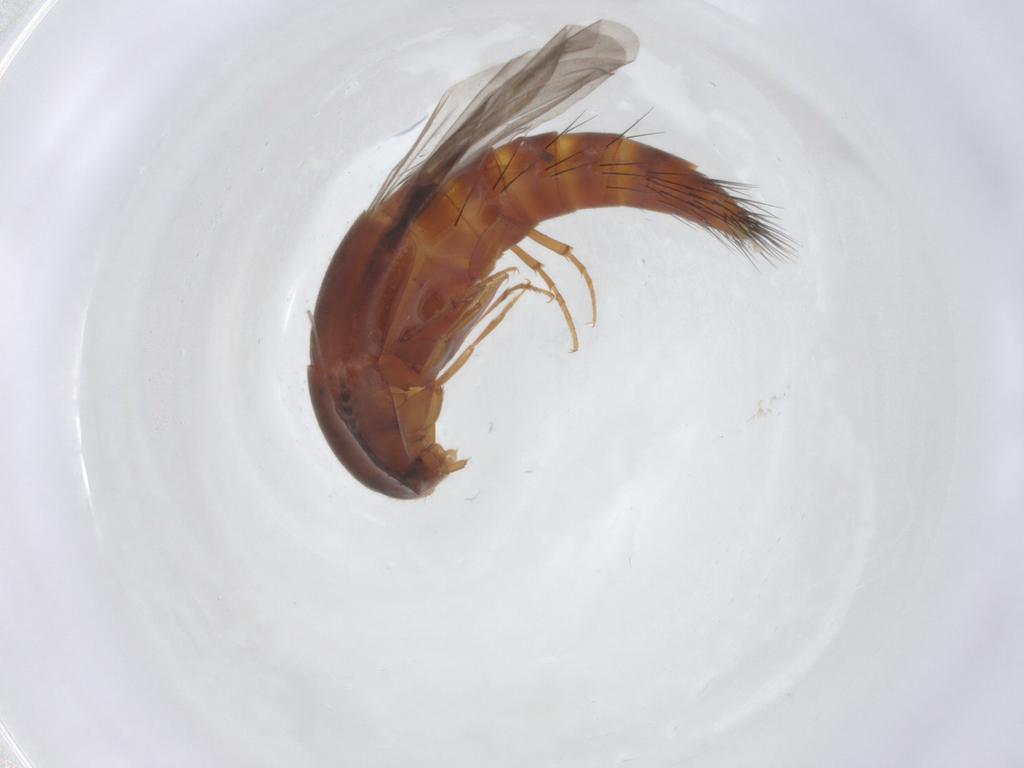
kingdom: Animalia
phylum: Arthropoda
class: Insecta
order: Coleoptera
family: Staphylinidae
